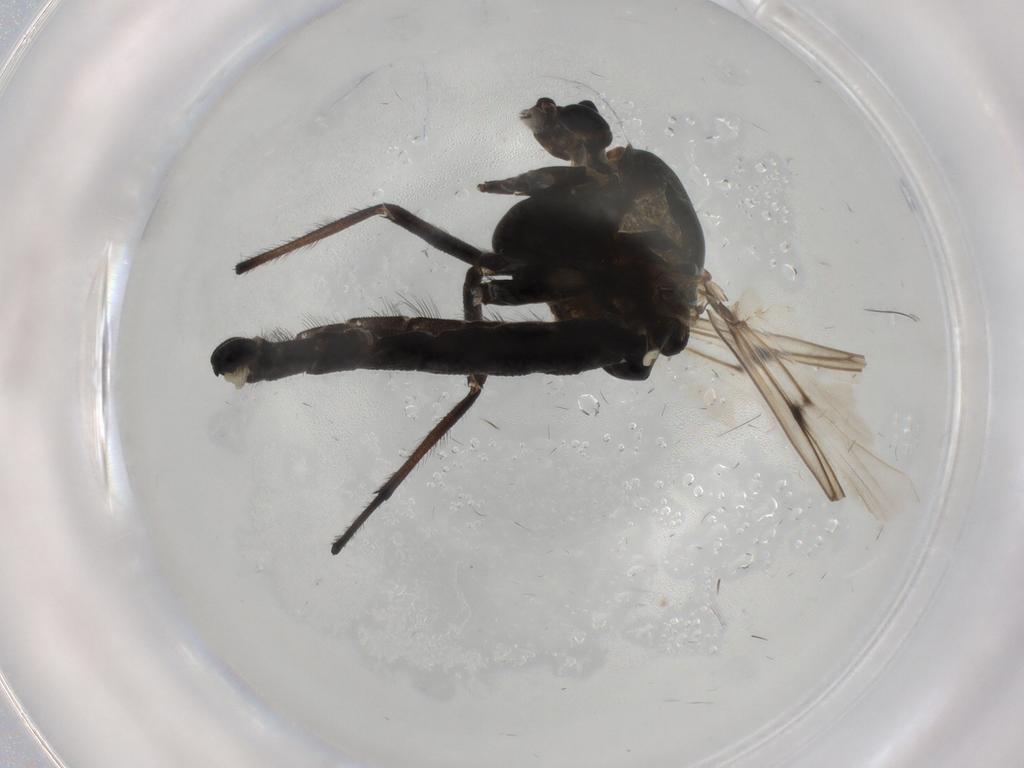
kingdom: Animalia
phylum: Arthropoda
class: Insecta
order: Diptera
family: Chironomidae
